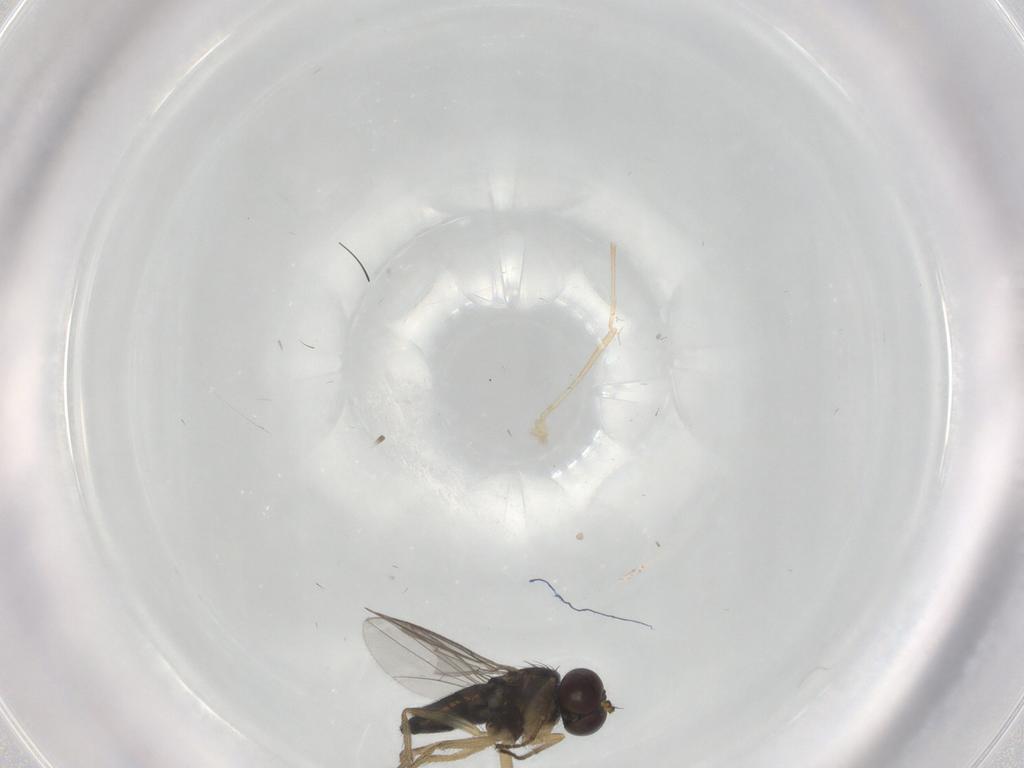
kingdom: Animalia
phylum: Arthropoda
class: Insecta
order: Diptera
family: Dolichopodidae
